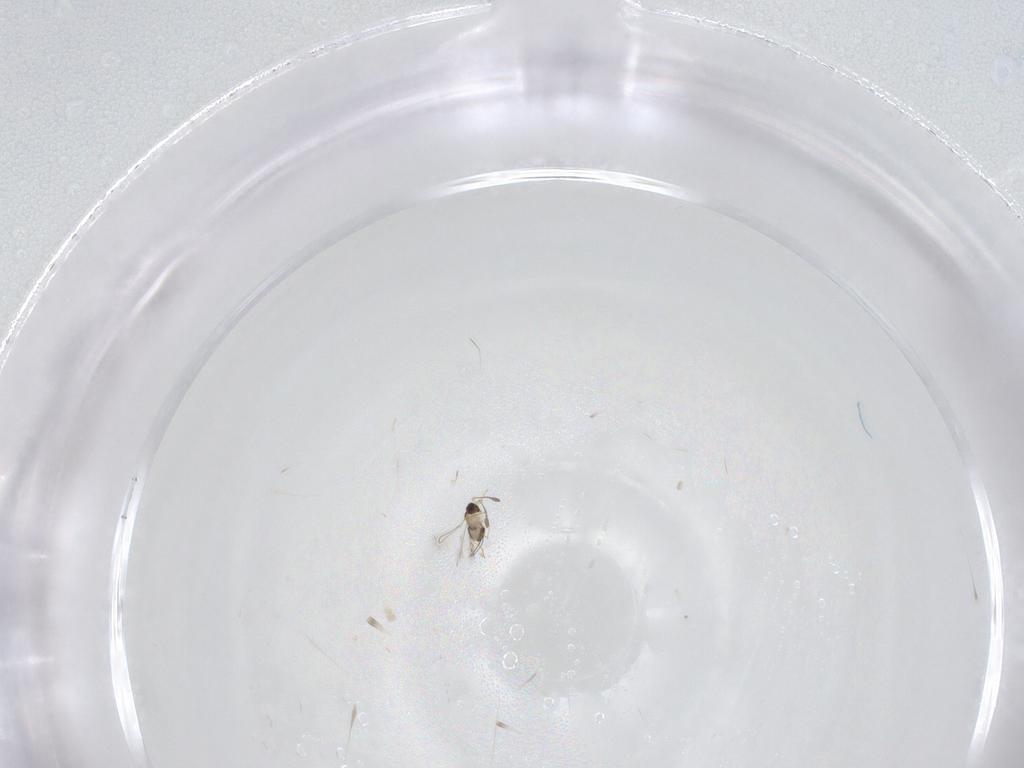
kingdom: Animalia
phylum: Arthropoda
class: Insecta
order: Hymenoptera
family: Platygastridae
